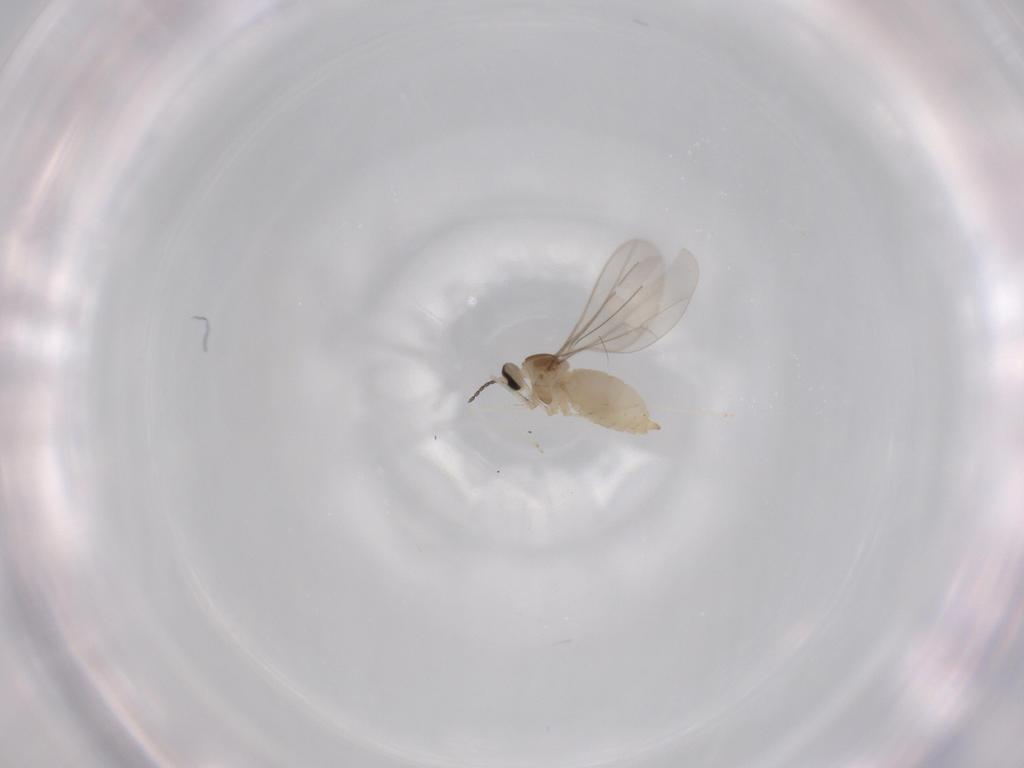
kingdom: Animalia
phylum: Arthropoda
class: Insecta
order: Diptera
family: Cecidomyiidae
